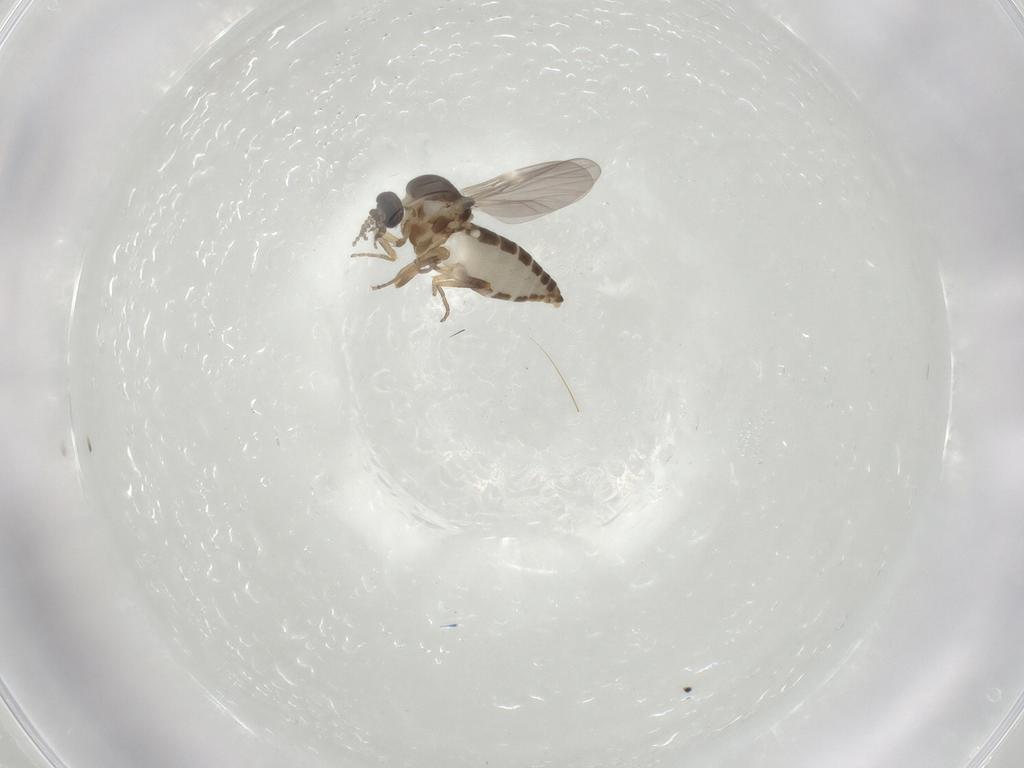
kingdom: Animalia
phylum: Arthropoda
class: Insecta
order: Diptera
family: Ceratopogonidae
